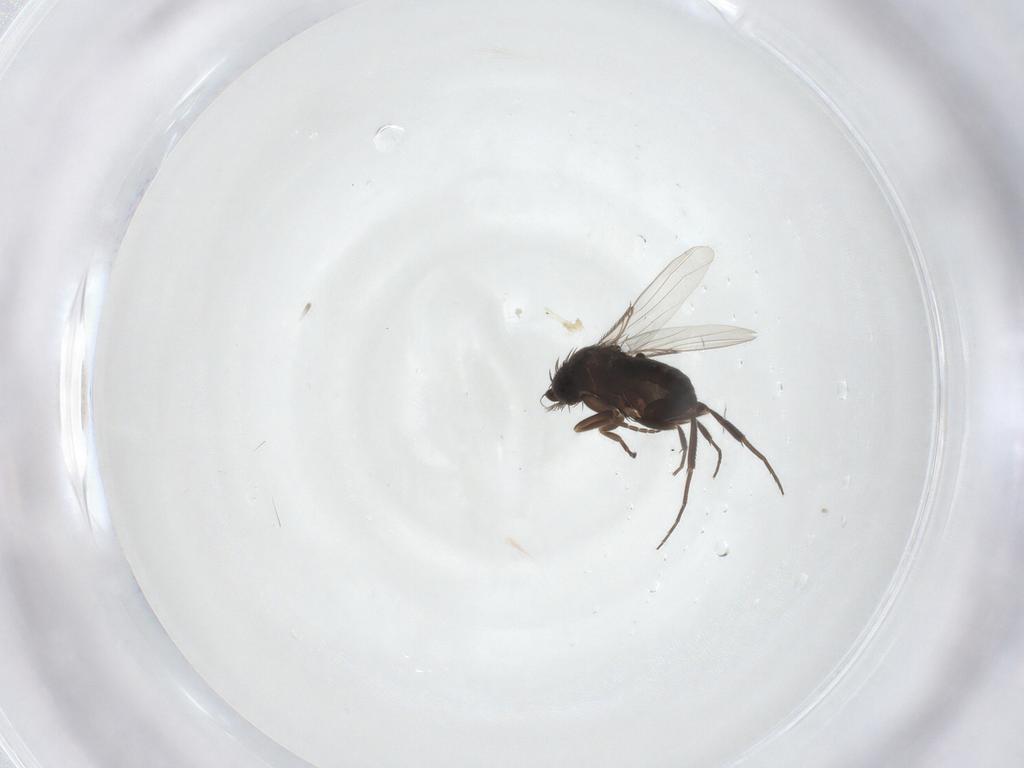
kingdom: Animalia
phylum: Arthropoda
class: Insecta
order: Diptera
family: Phoridae
